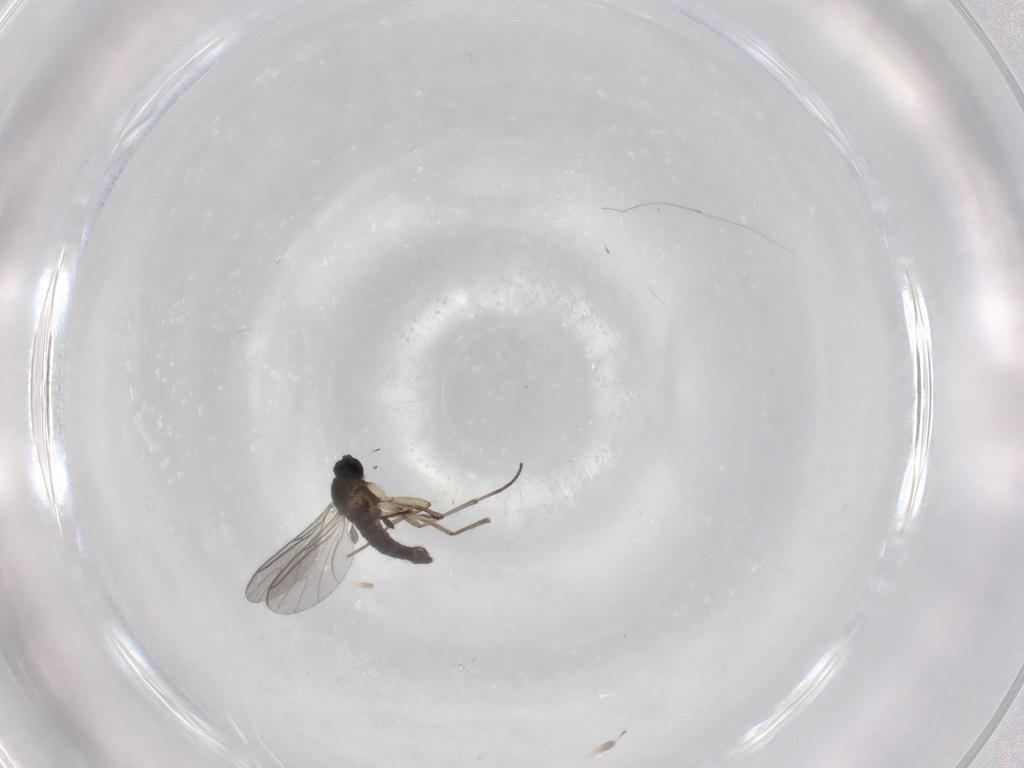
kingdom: Animalia
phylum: Arthropoda
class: Insecta
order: Diptera
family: Sciaridae
